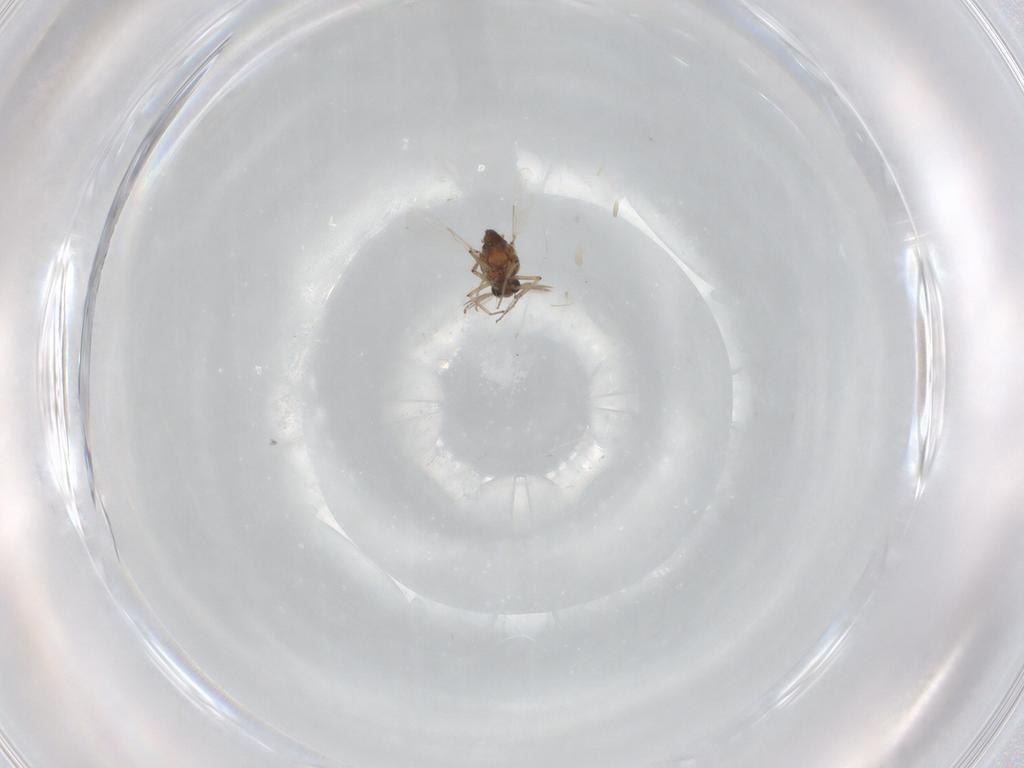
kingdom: Animalia
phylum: Arthropoda
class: Insecta
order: Diptera
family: Ceratopogonidae
